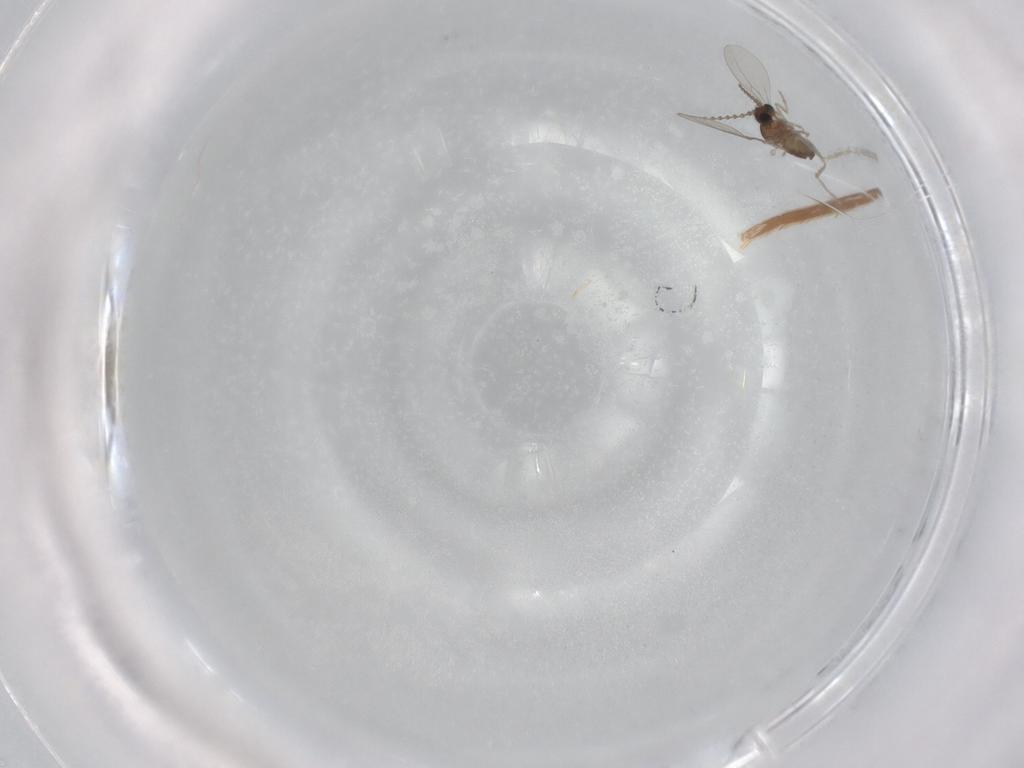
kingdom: Animalia
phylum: Arthropoda
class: Insecta
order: Diptera
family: Cecidomyiidae
